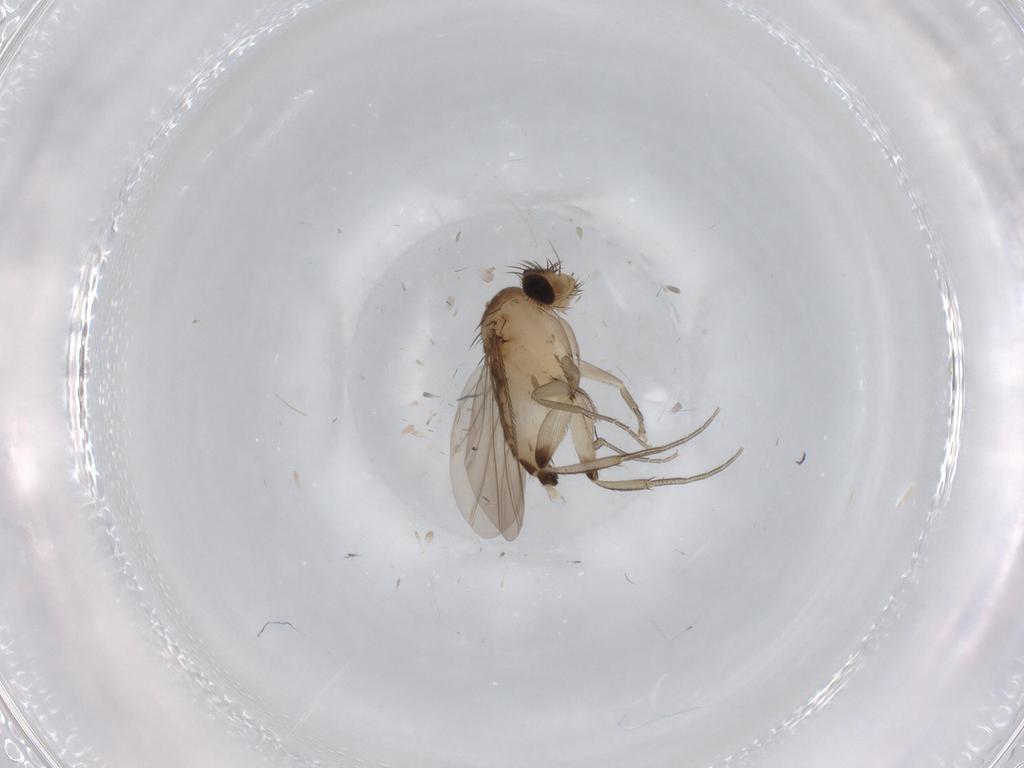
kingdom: Animalia
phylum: Arthropoda
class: Insecta
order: Diptera
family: Phoridae
